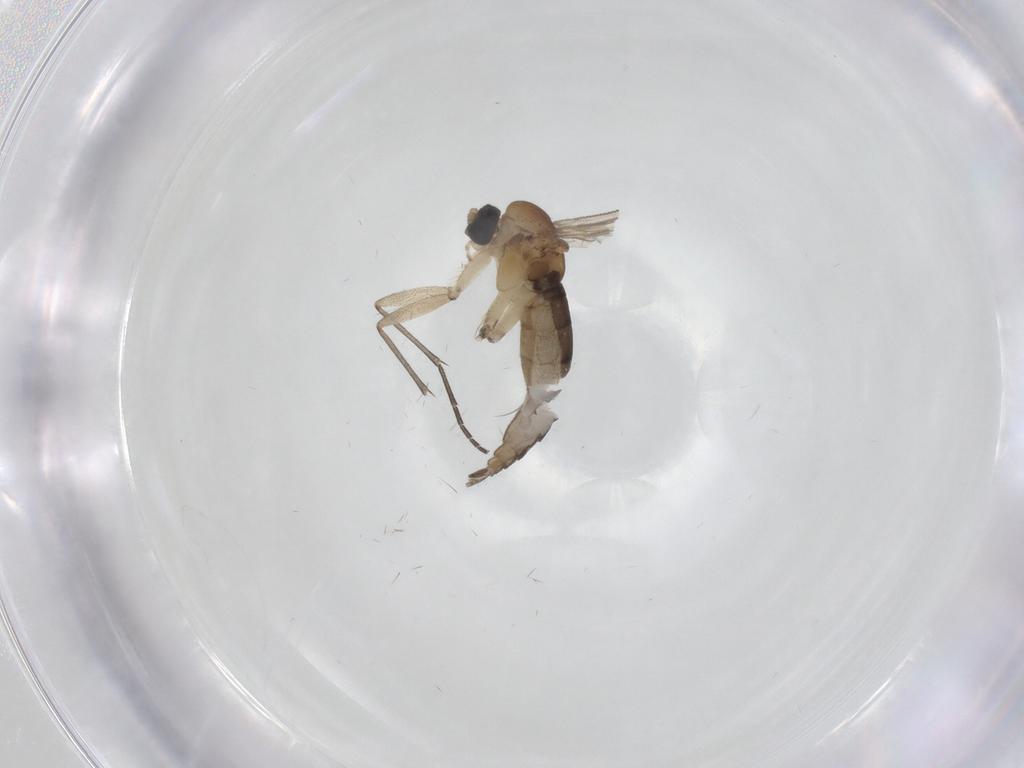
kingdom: Animalia
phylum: Arthropoda
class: Insecta
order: Diptera
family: Sciaridae
